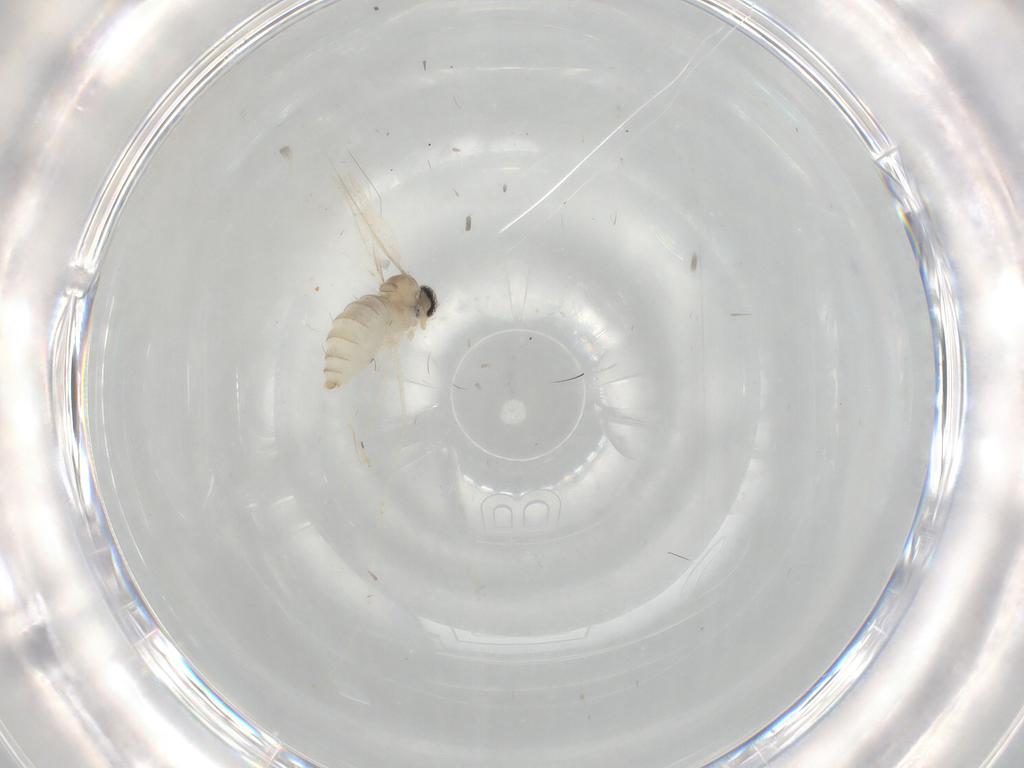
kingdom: Animalia
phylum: Arthropoda
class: Insecta
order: Diptera
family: Cecidomyiidae
